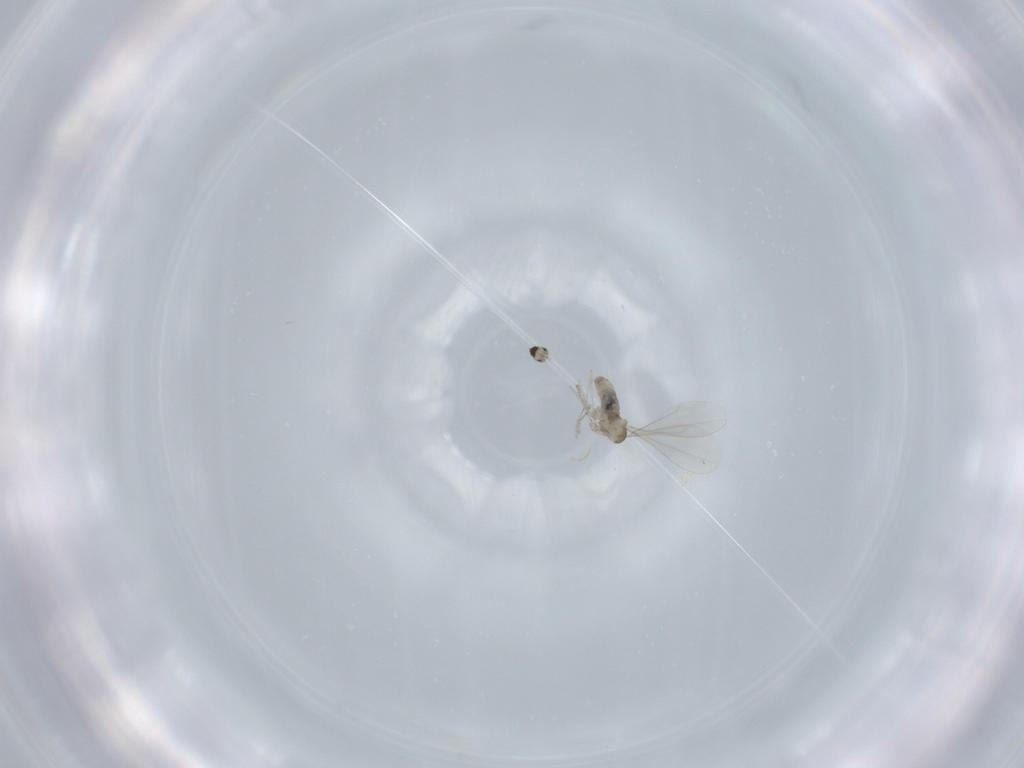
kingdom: Animalia
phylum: Arthropoda
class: Insecta
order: Diptera
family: Cecidomyiidae
